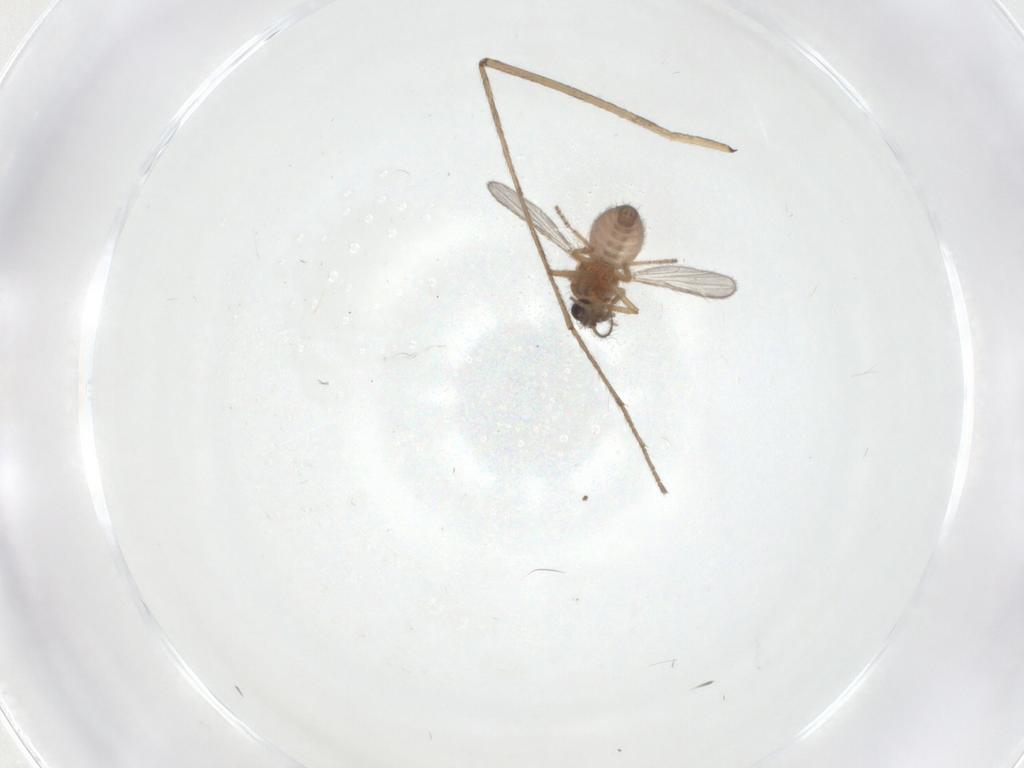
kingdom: Animalia
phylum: Arthropoda
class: Insecta
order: Diptera
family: Ceratopogonidae
